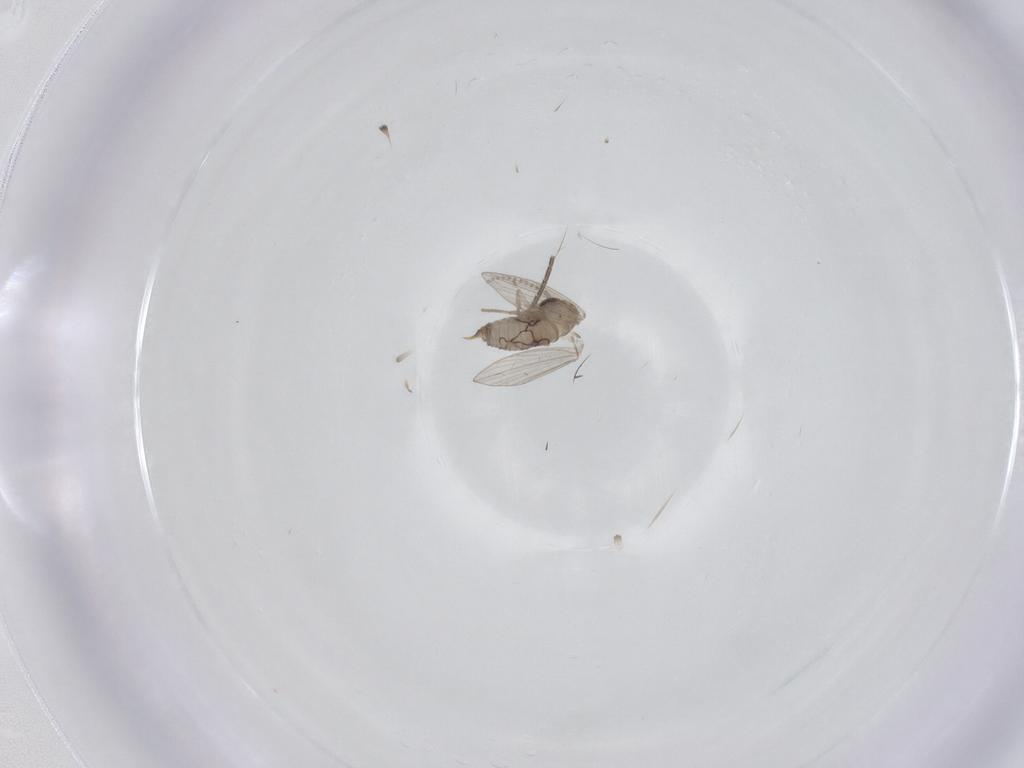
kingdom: Animalia
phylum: Arthropoda
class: Insecta
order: Diptera
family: Psychodidae
